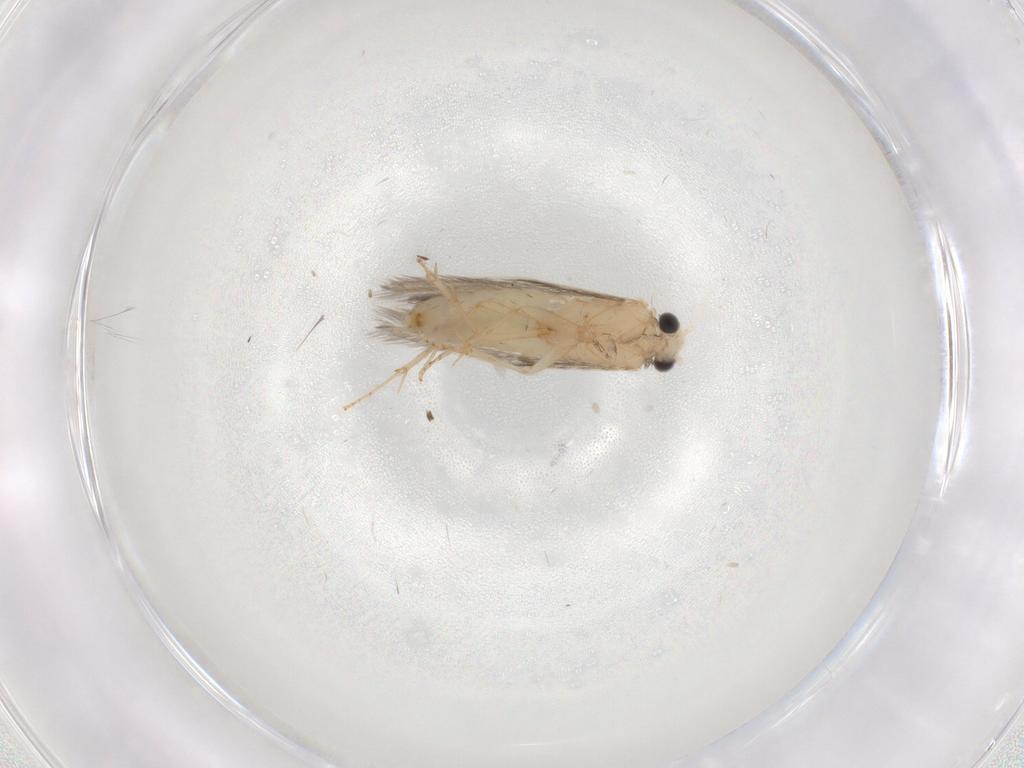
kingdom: Animalia
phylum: Arthropoda
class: Insecta
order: Trichoptera
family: Hydroptilidae
